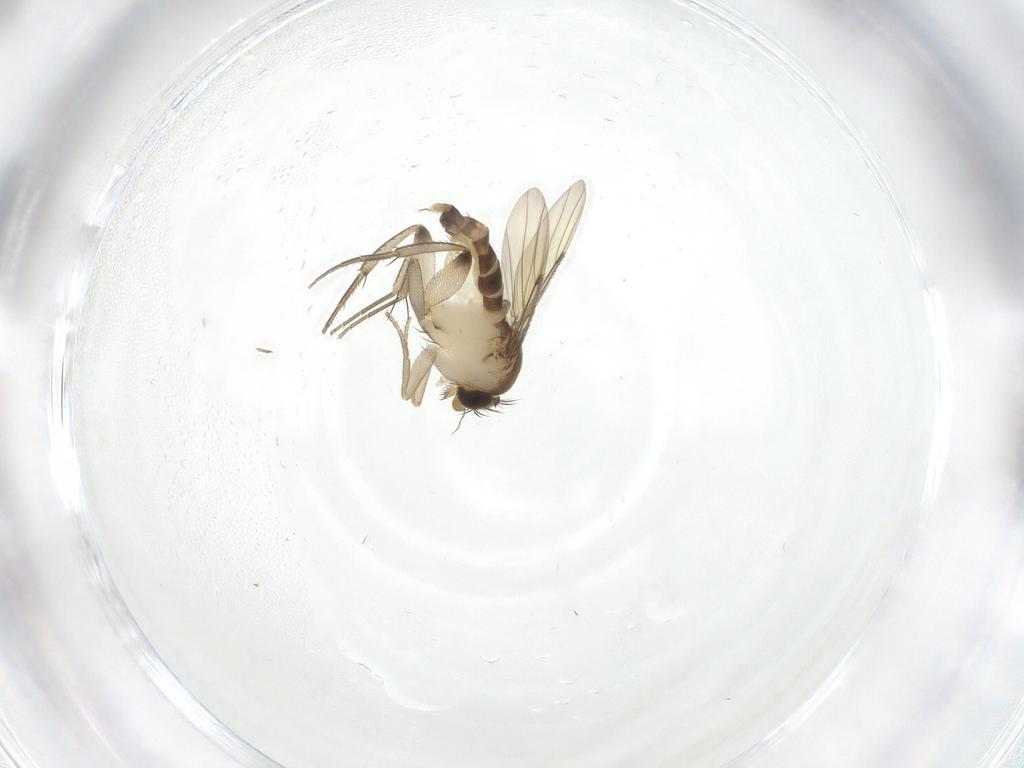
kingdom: Animalia
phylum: Arthropoda
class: Insecta
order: Diptera
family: Phoridae
